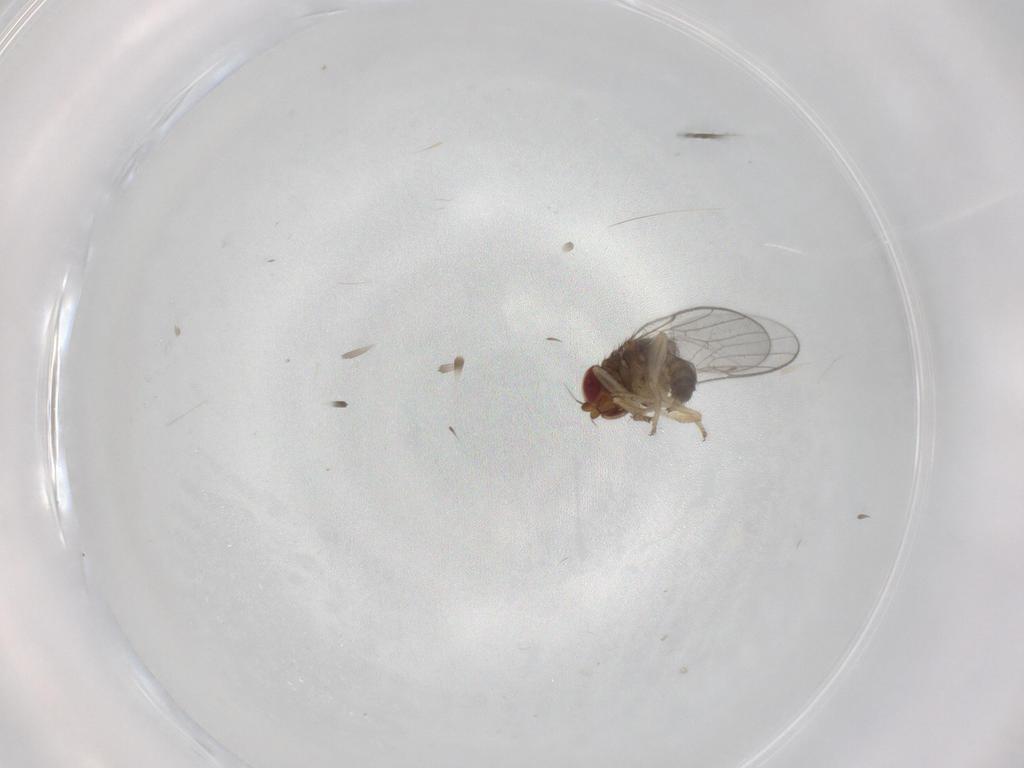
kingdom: Animalia
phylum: Arthropoda
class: Insecta
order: Diptera
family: Chloropidae
